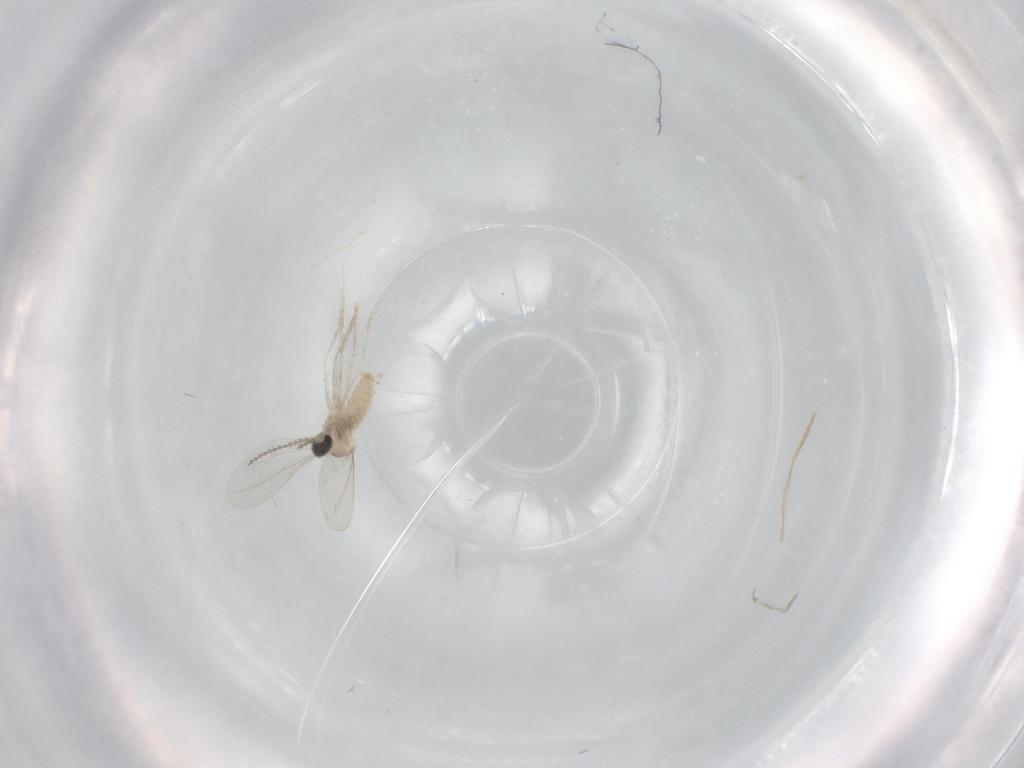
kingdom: Animalia
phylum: Arthropoda
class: Insecta
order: Diptera
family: Cecidomyiidae
